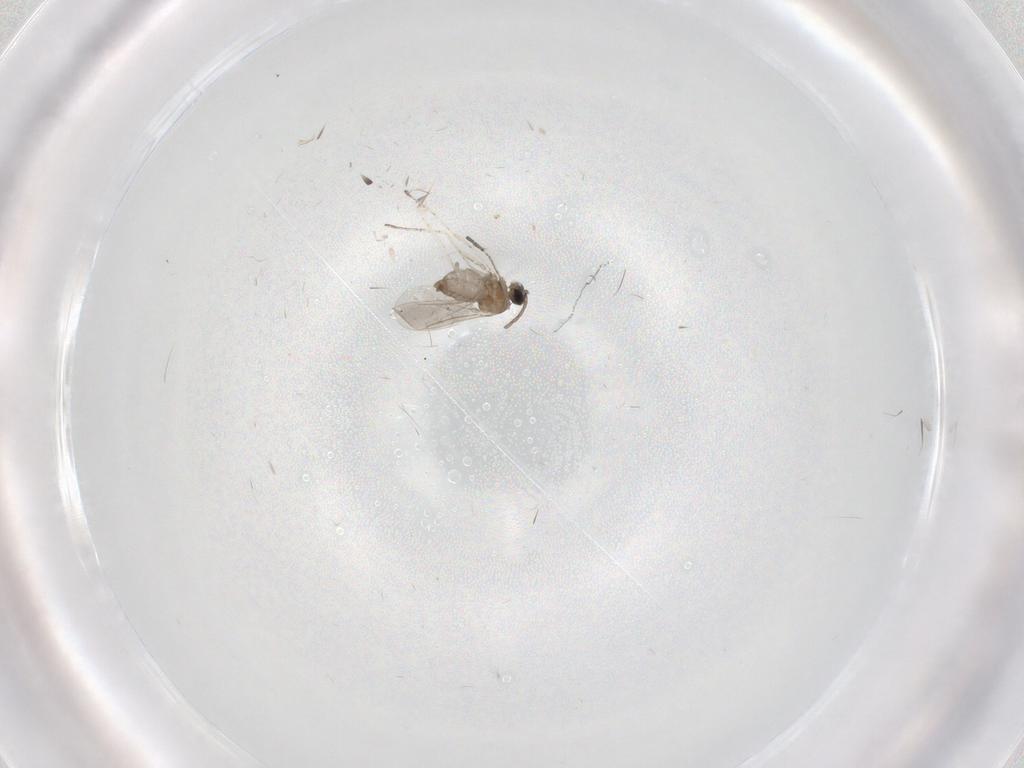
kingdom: Animalia
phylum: Arthropoda
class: Insecta
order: Diptera
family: Cecidomyiidae
